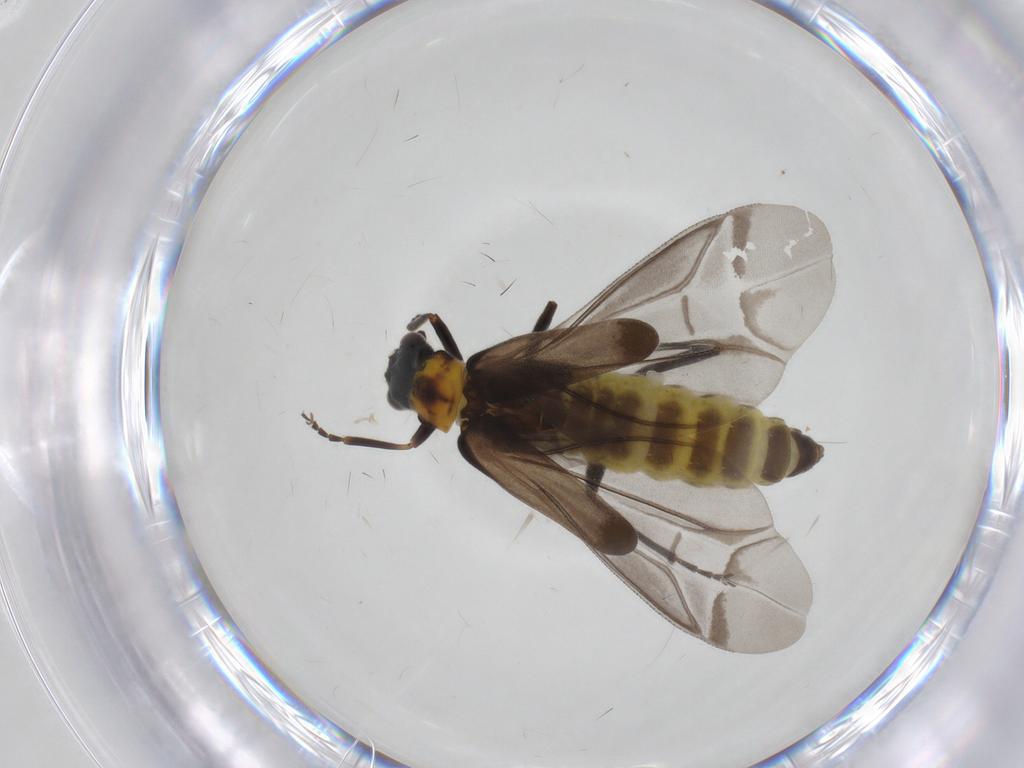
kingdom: Animalia
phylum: Arthropoda
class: Insecta
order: Coleoptera
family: Cantharidae
